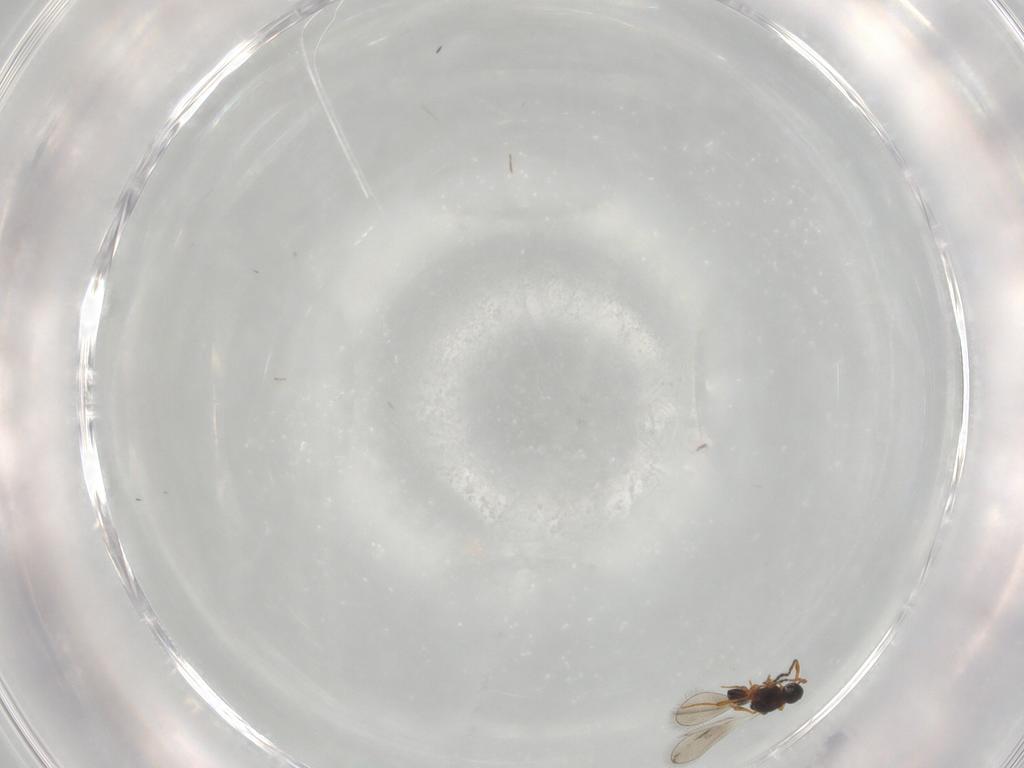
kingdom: Animalia
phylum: Arthropoda
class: Insecta
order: Hymenoptera
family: Platygastridae
